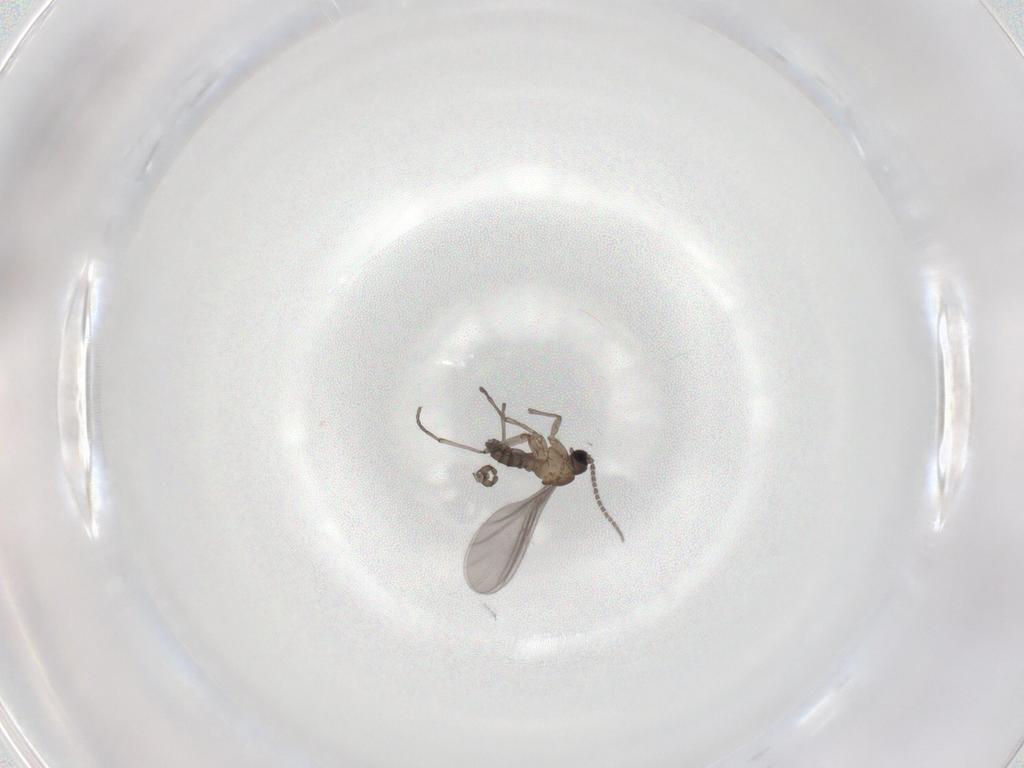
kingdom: Animalia
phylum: Arthropoda
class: Insecta
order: Diptera
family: Sciaridae
